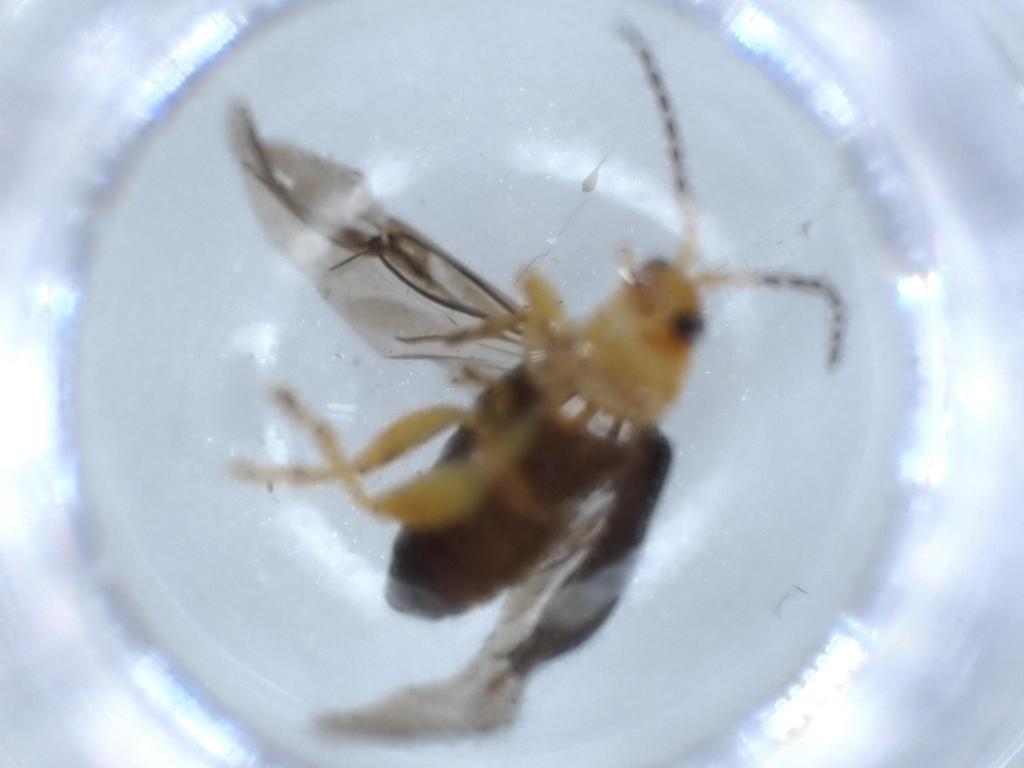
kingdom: Animalia
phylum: Arthropoda
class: Insecta
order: Coleoptera
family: Chrysomelidae
